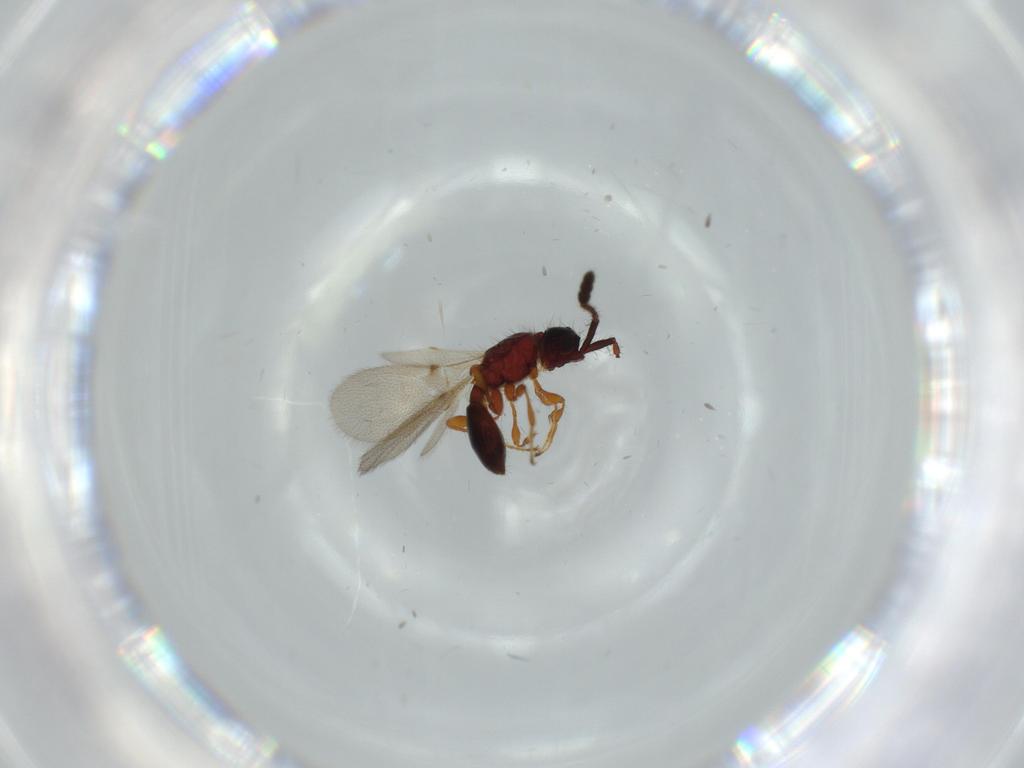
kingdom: Animalia
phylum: Arthropoda
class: Insecta
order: Hymenoptera
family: Diapriidae
